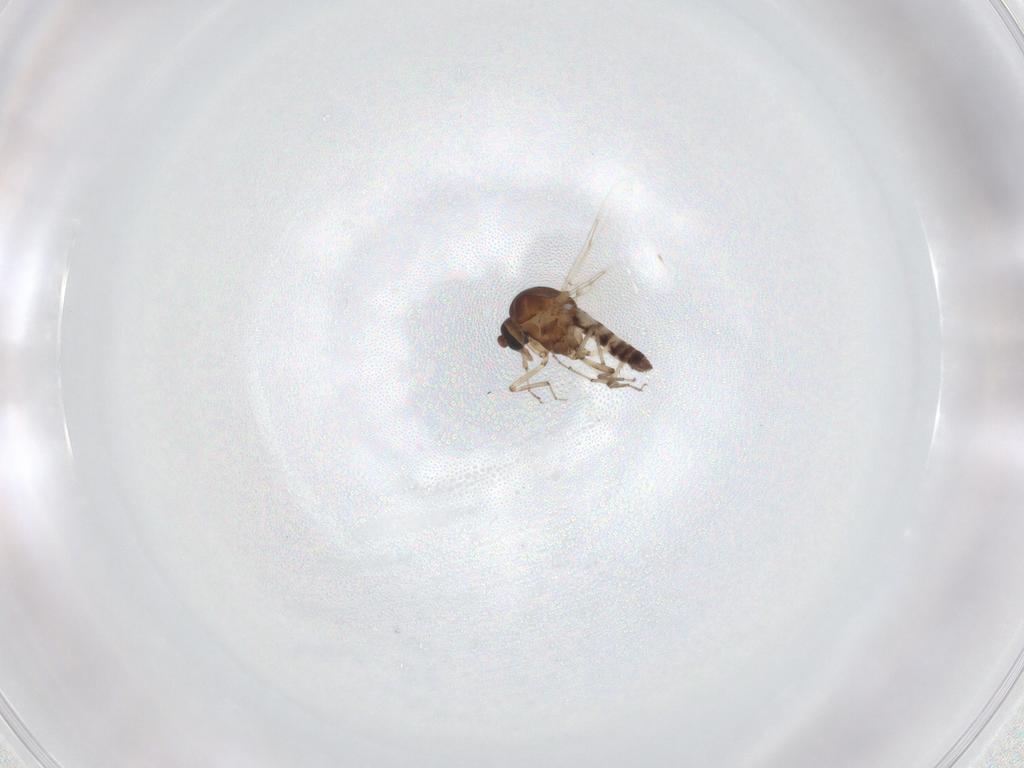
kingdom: Animalia
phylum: Arthropoda
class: Insecta
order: Diptera
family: Ceratopogonidae
